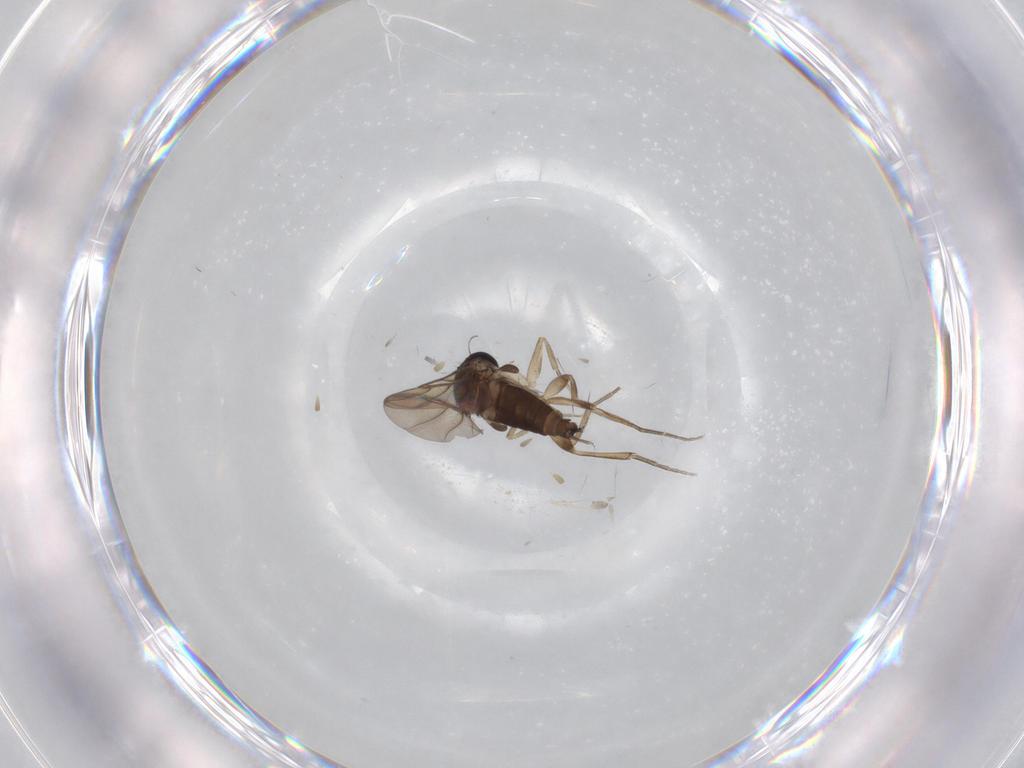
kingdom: Animalia
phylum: Arthropoda
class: Insecta
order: Diptera
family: Phoridae
